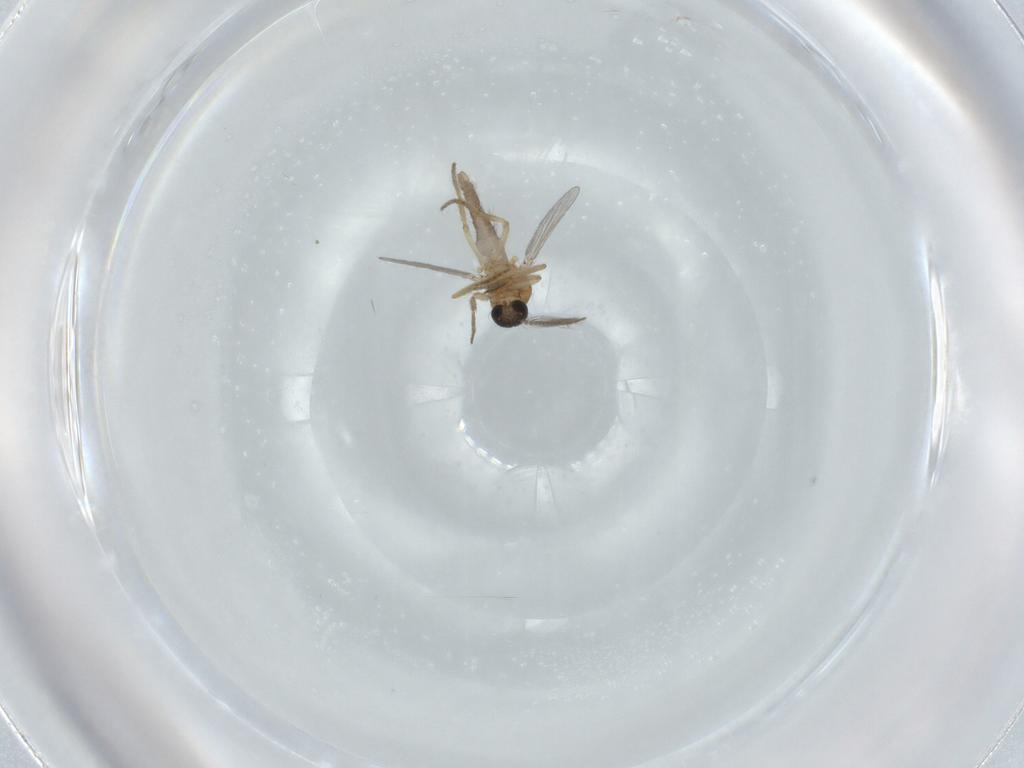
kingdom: Animalia
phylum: Arthropoda
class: Insecta
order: Diptera
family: Chironomidae
